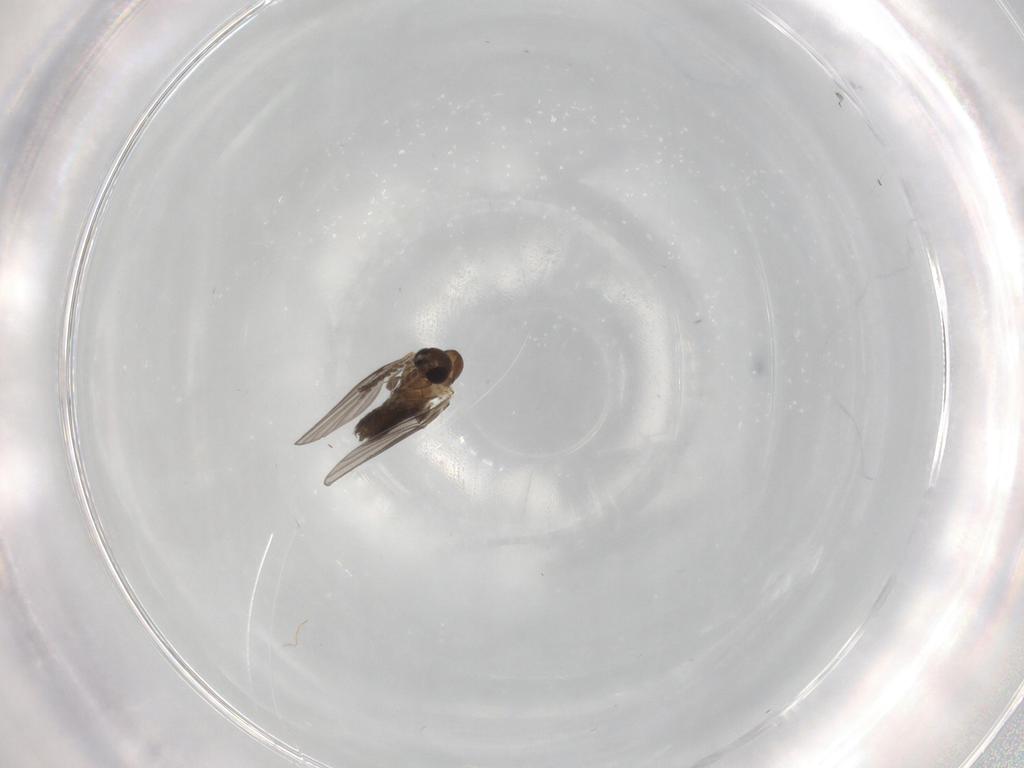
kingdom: Animalia
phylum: Arthropoda
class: Insecta
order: Diptera
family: Psychodidae
